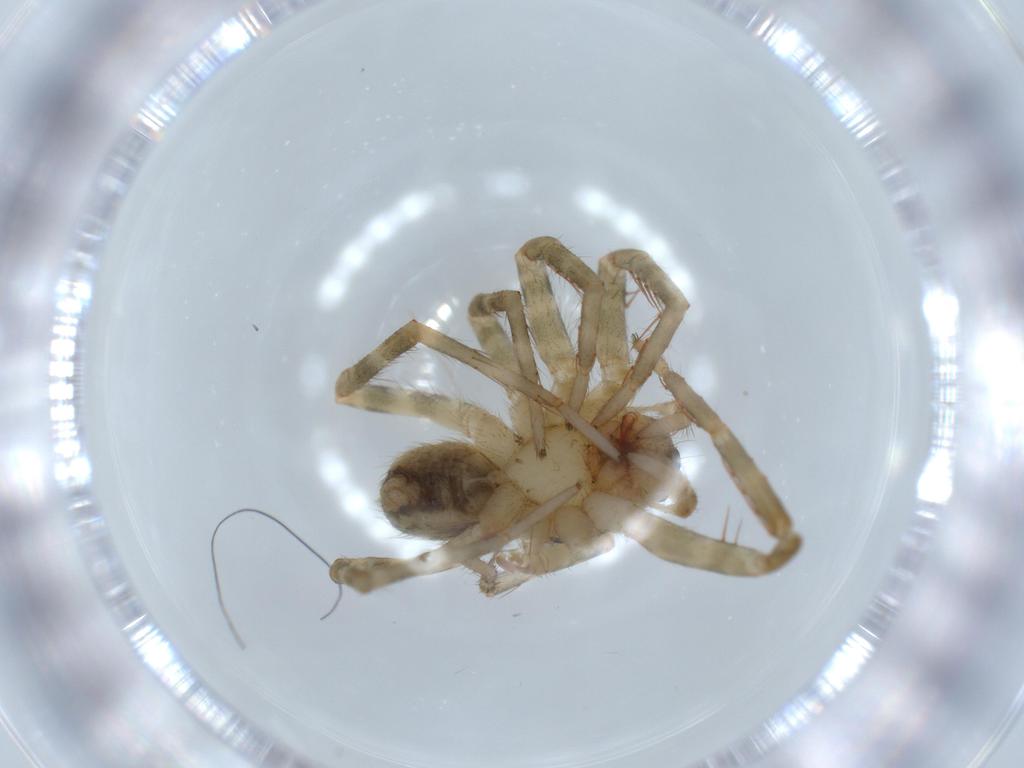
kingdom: Animalia
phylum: Arthropoda
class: Arachnida
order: Araneae
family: Ctenidae
